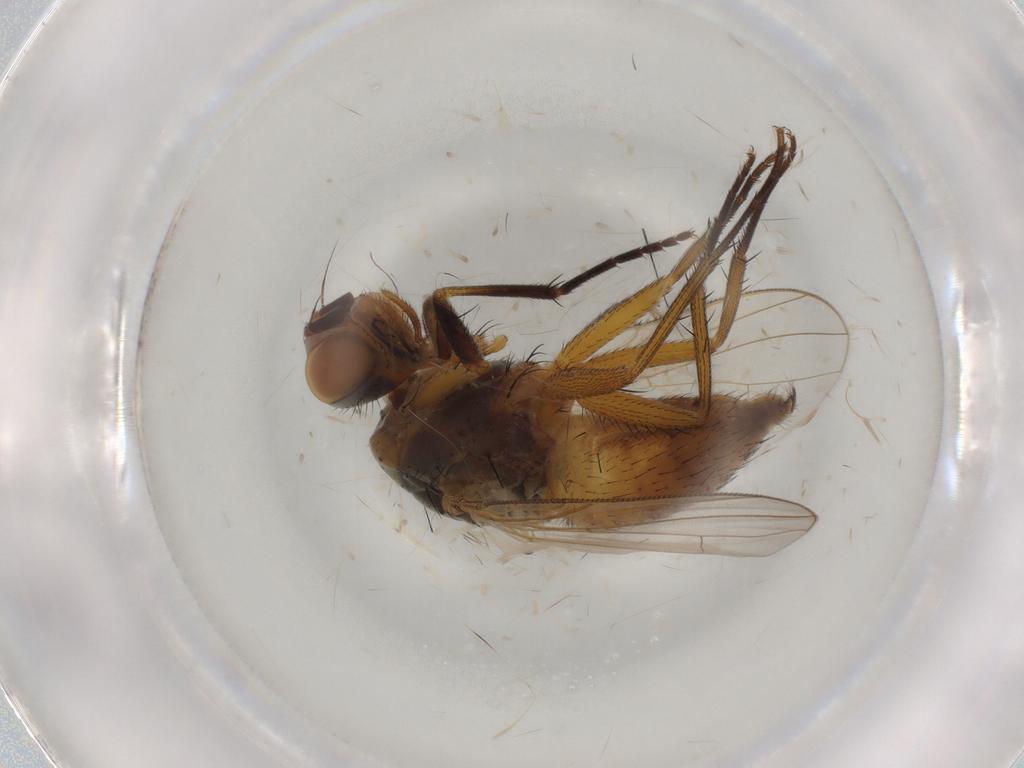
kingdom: Animalia
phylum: Arthropoda
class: Insecta
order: Diptera
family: Muscidae
